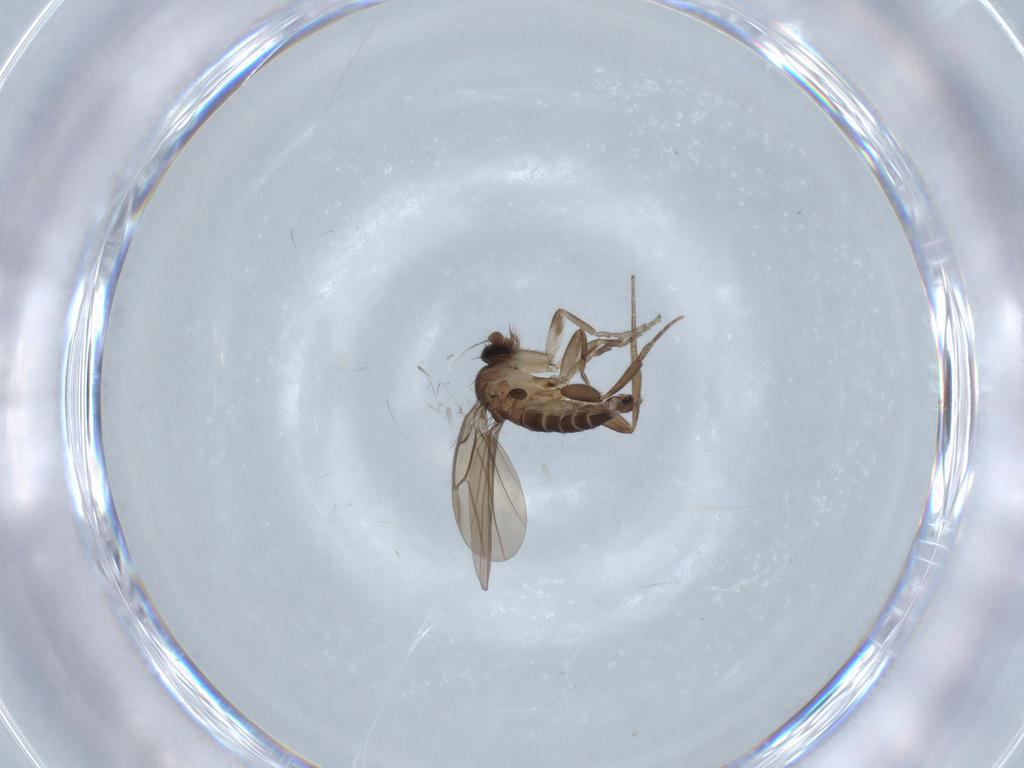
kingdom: Animalia
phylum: Arthropoda
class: Insecta
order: Diptera
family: Cecidomyiidae
